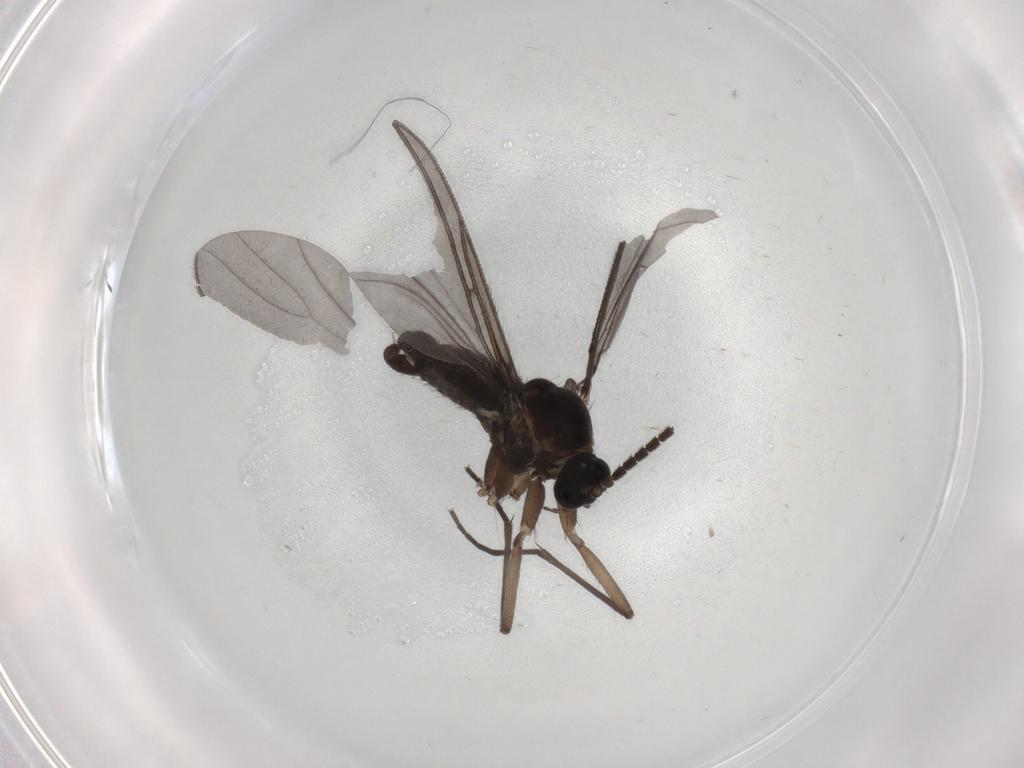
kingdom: Animalia
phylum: Arthropoda
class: Insecta
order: Diptera
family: Sciaridae
